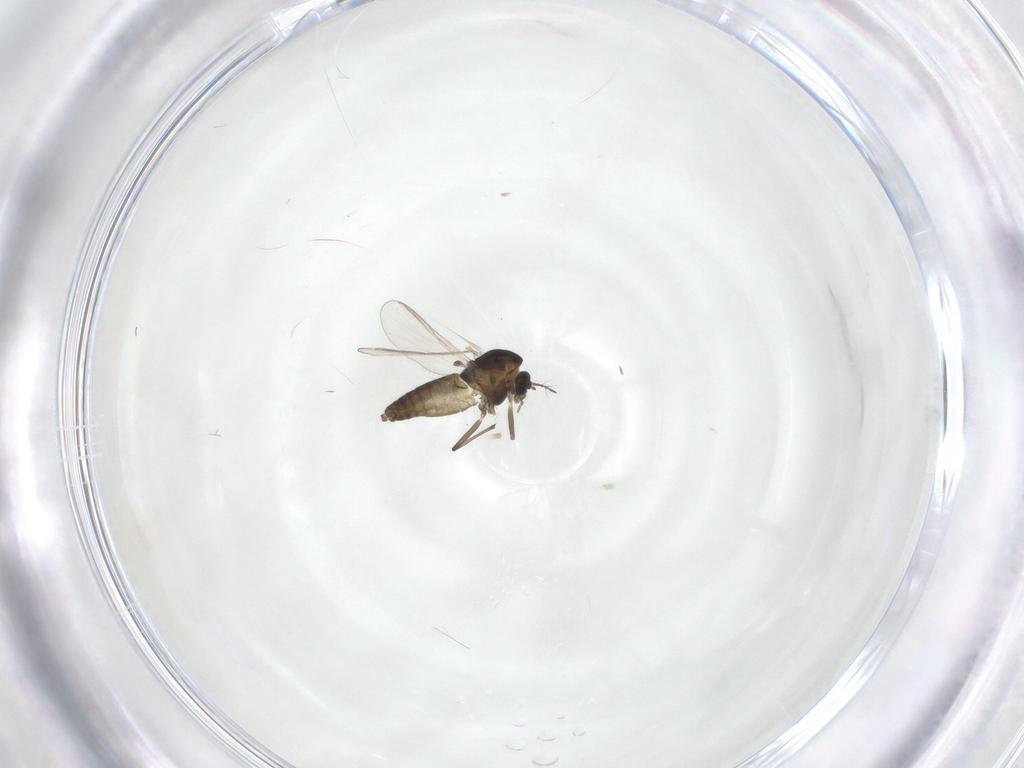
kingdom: Animalia
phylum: Arthropoda
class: Insecta
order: Diptera
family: Chironomidae
